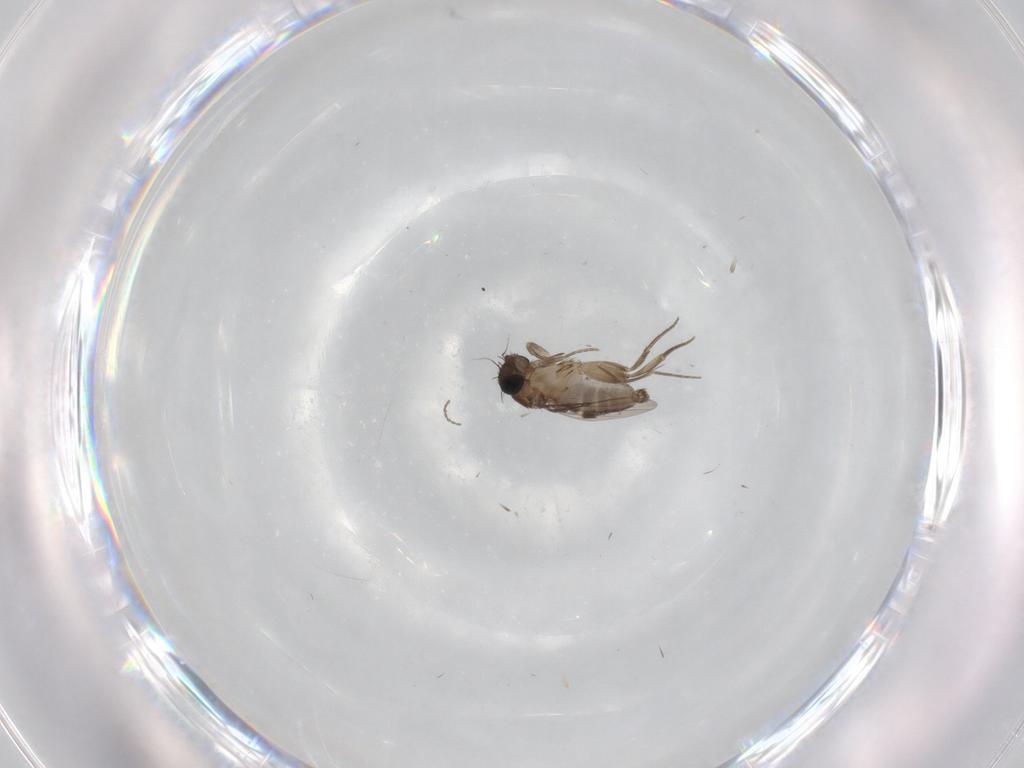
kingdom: Animalia
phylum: Arthropoda
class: Insecta
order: Diptera
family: Phoridae
